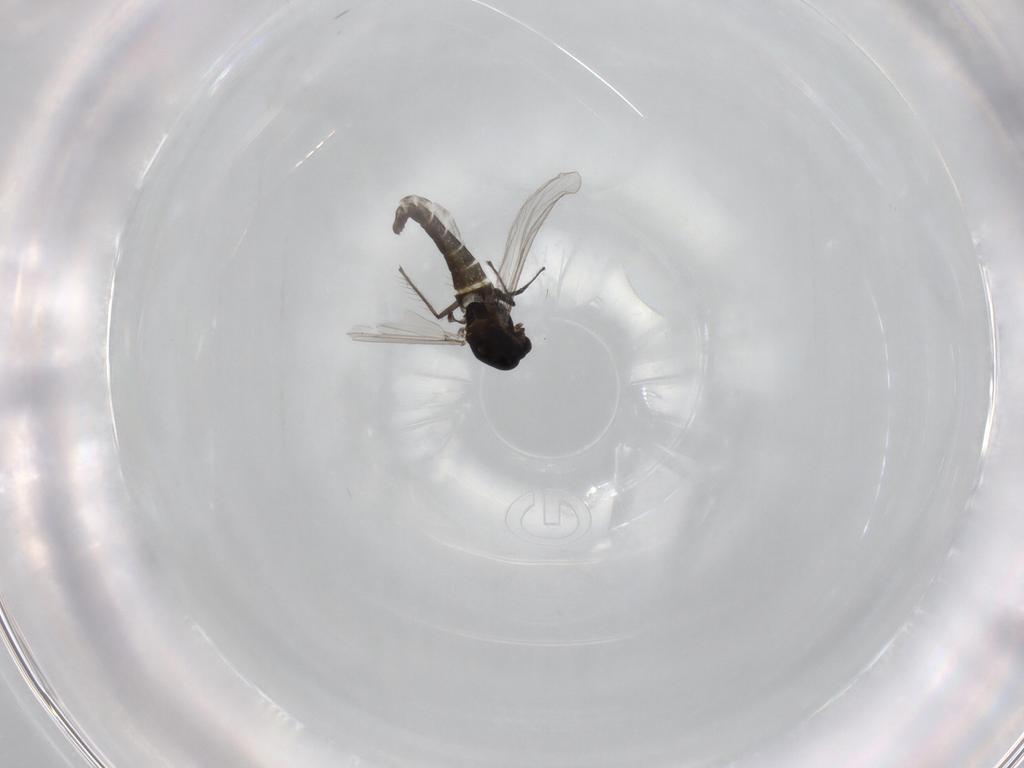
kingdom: Animalia
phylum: Arthropoda
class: Insecta
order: Diptera
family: Chironomidae
